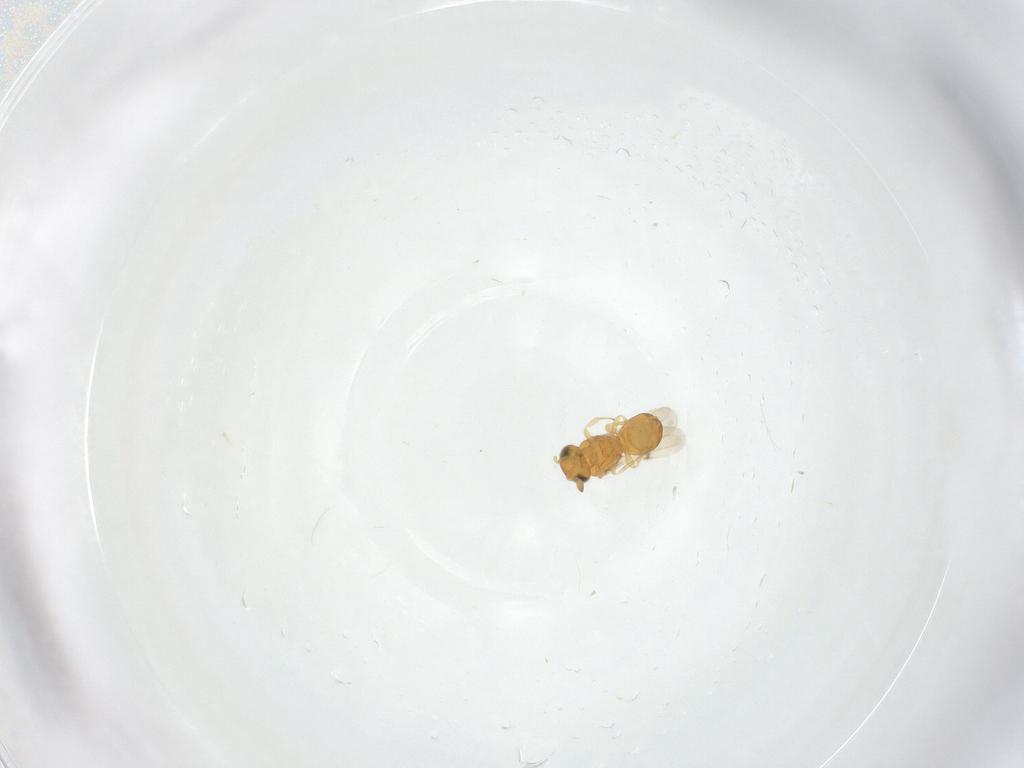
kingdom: Animalia
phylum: Arthropoda
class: Insecta
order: Hymenoptera
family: Scelionidae
